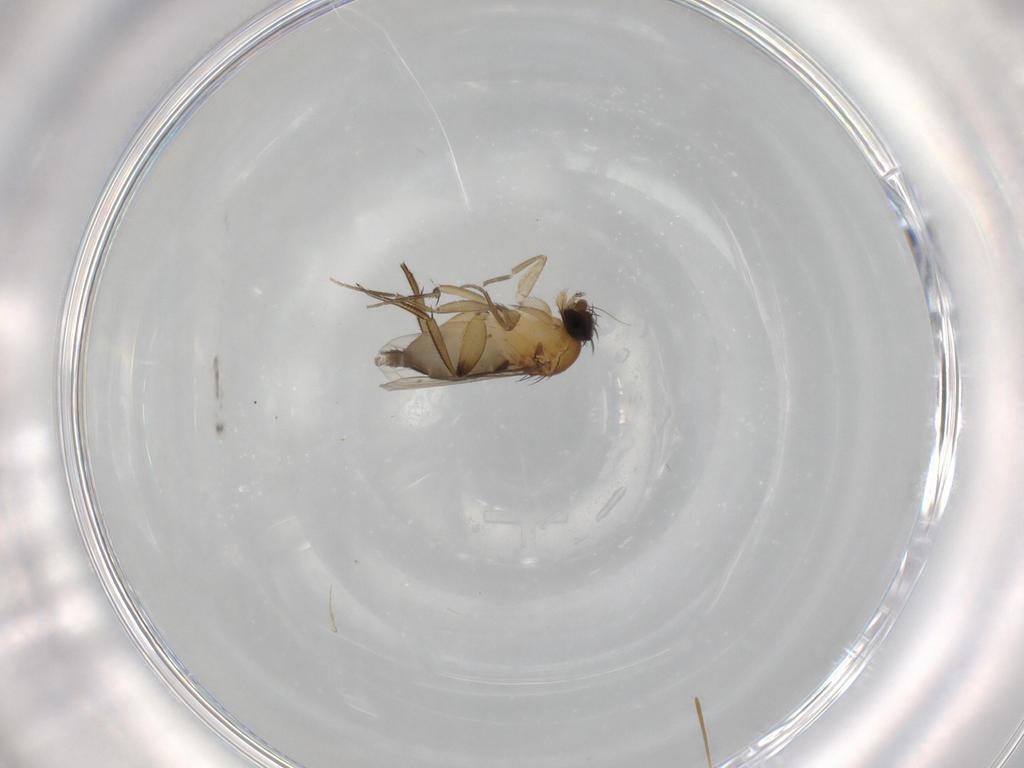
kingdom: Animalia
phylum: Arthropoda
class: Insecta
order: Diptera
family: Phoridae
